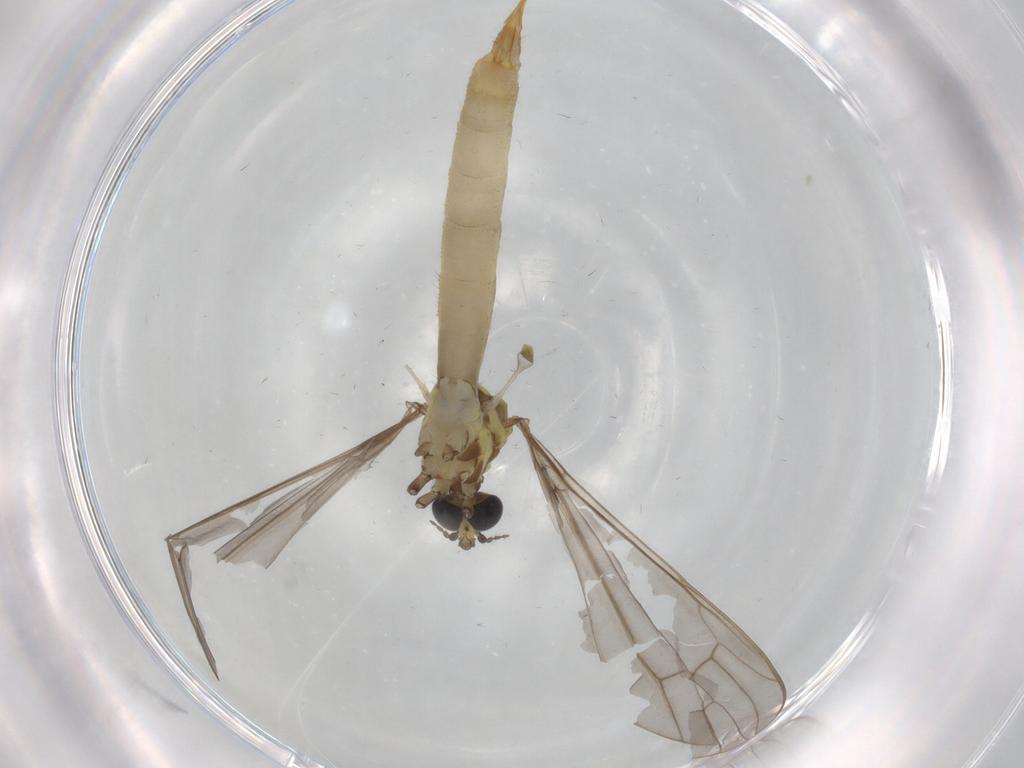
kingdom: Animalia
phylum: Arthropoda
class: Insecta
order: Diptera
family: Limoniidae
